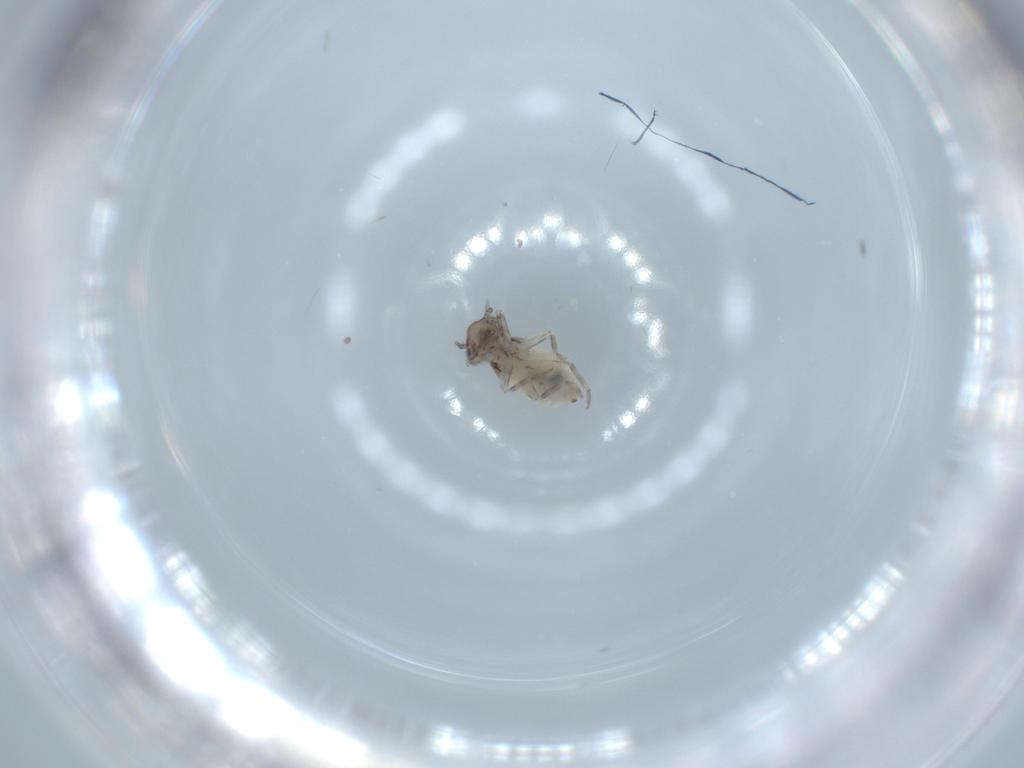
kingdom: Animalia
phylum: Arthropoda
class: Insecta
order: Psocodea
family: Lepidopsocidae
